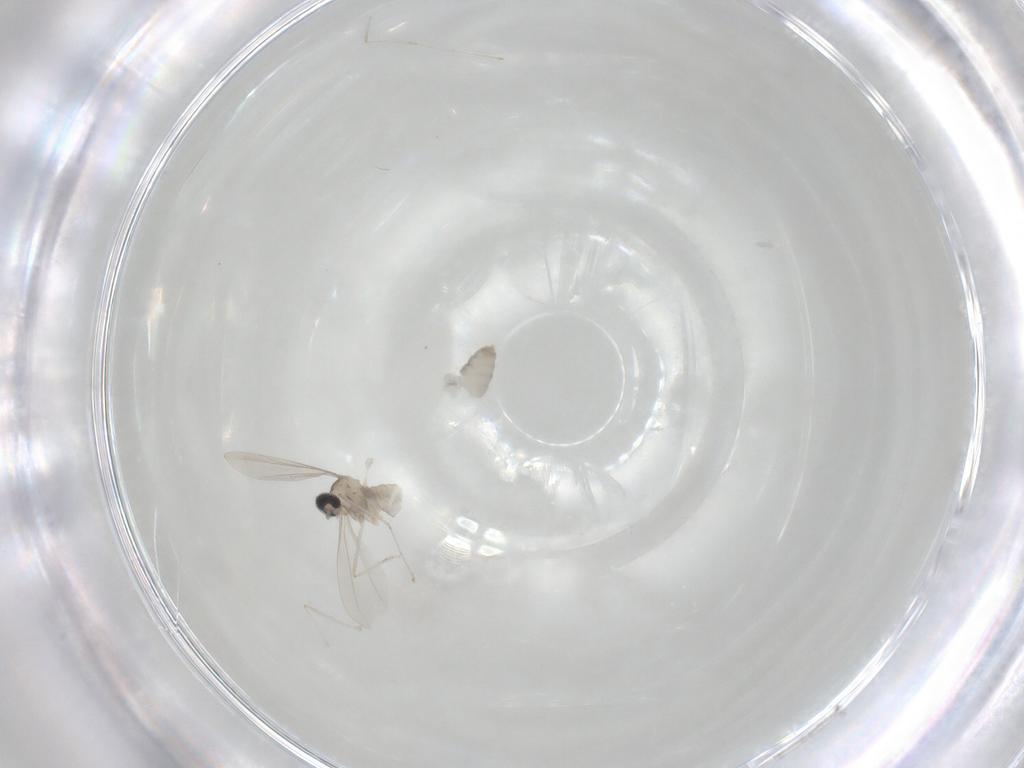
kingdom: Animalia
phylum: Arthropoda
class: Insecta
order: Diptera
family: Cecidomyiidae
